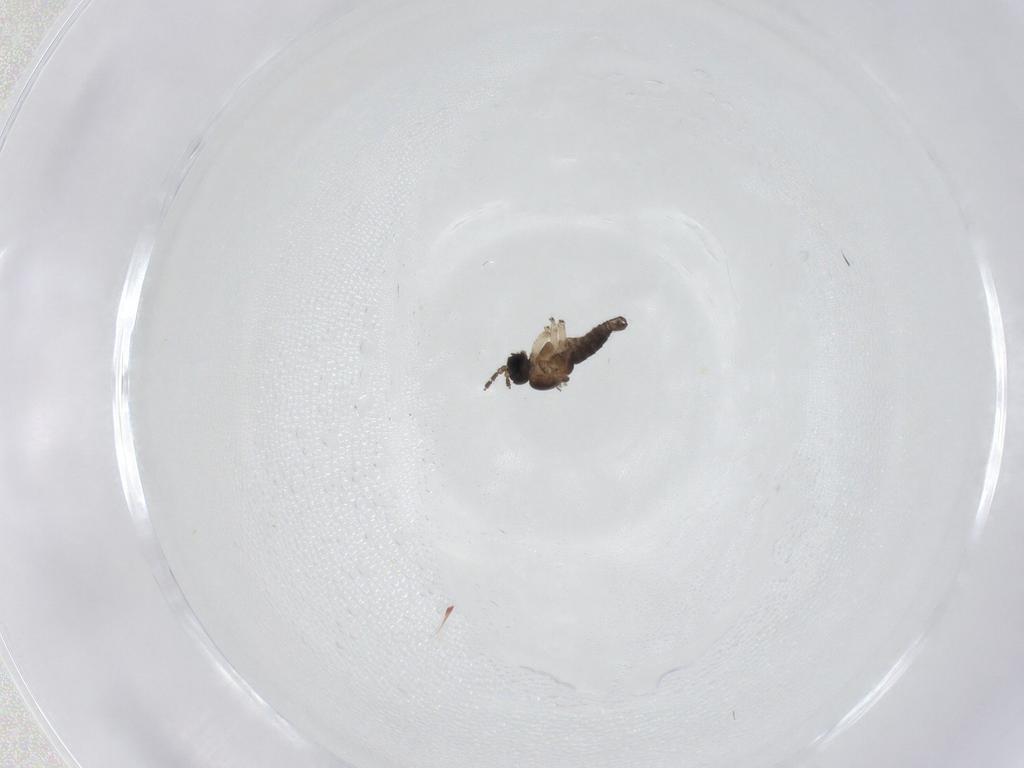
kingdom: Animalia
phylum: Arthropoda
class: Insecta
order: Diptera
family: Sciaridae
